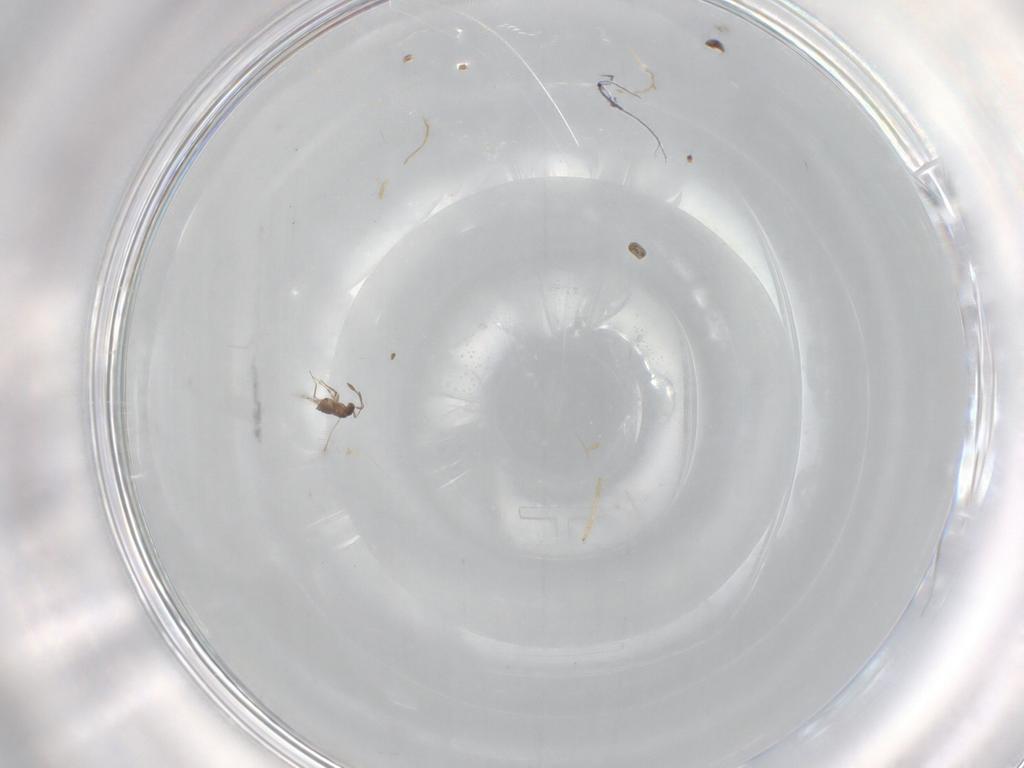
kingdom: Animalia
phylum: Arthropoda
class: Insecta
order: Hymenoptera
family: Mymaridae
